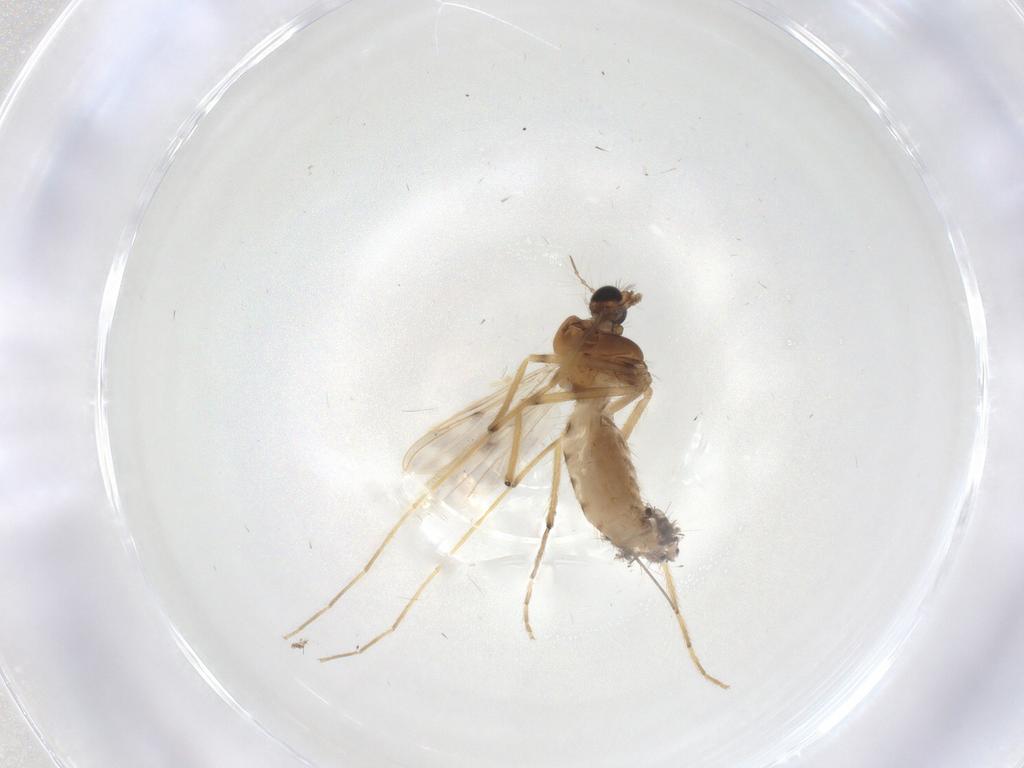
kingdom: Animalia
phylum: Arthropoda
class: Insecta
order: Diptera
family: Chironomidae
